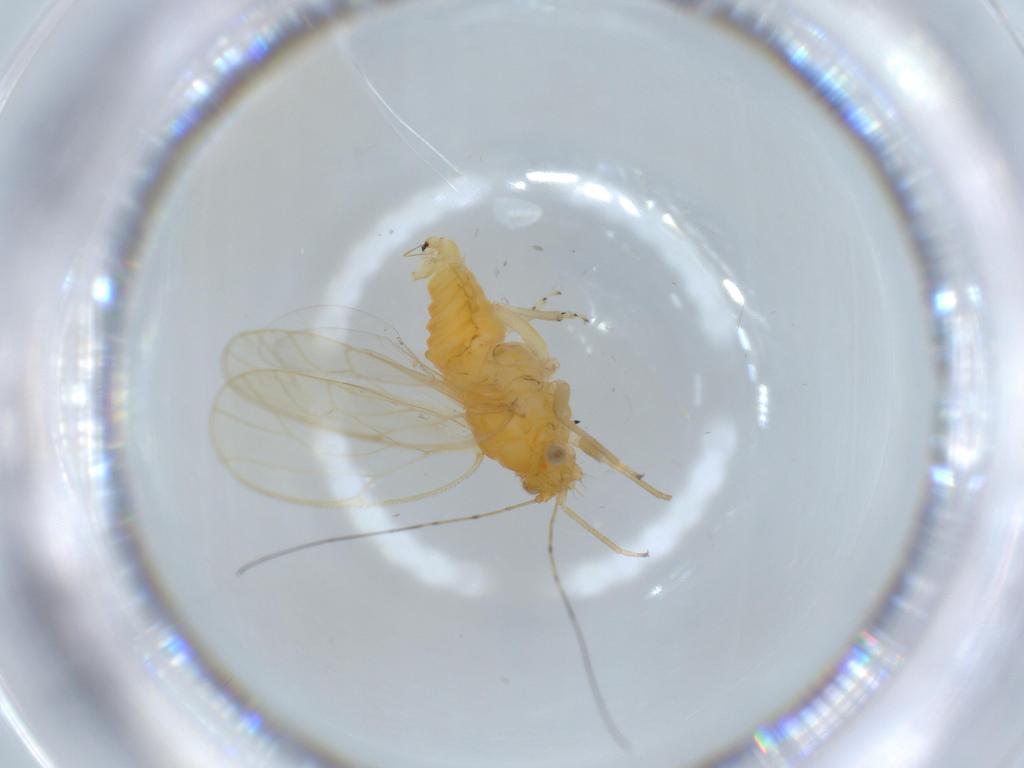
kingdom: Animalia
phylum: Arthropoda
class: Insecta
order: Hemiptera
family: Psyllidae
